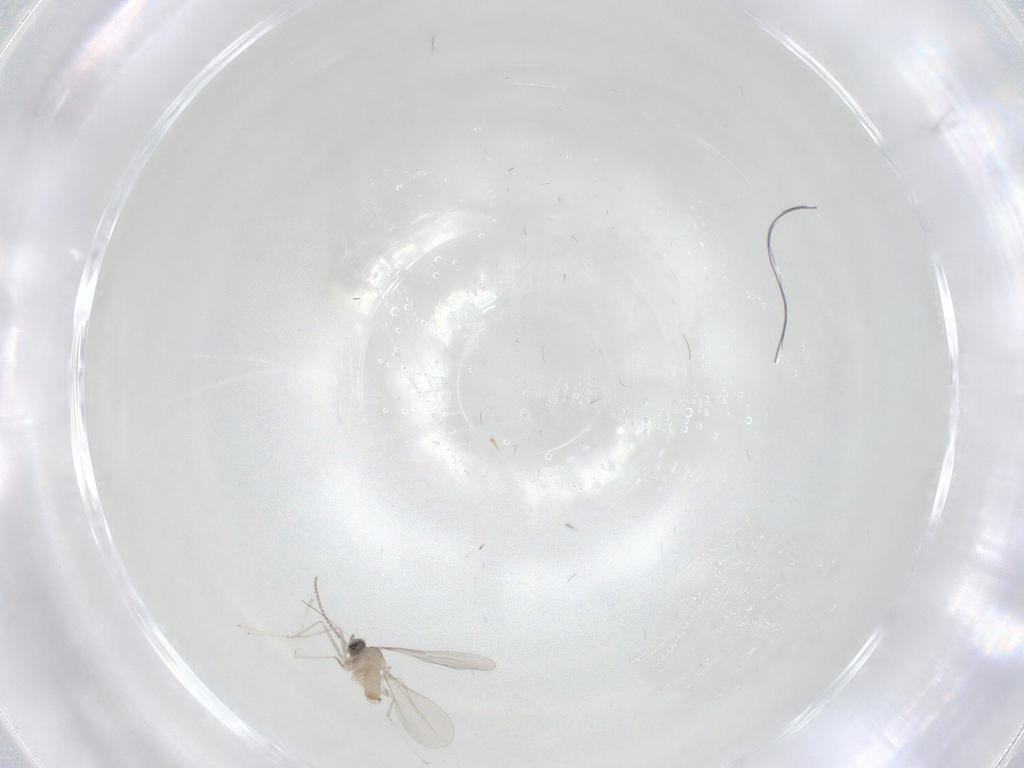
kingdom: Animalia
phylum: Arthropoda
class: Insecta
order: Diptera
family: Cecidomyiidae
